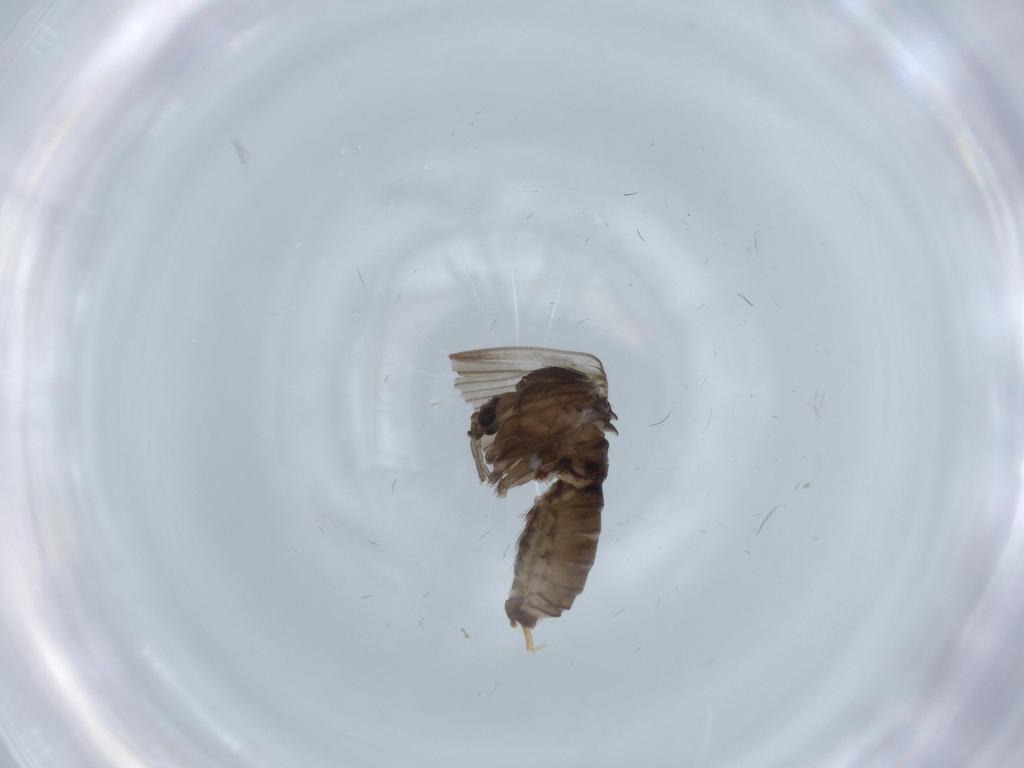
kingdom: Animalia
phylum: Arthropoda
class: Insecta
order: Diptera
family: Psychodidae
